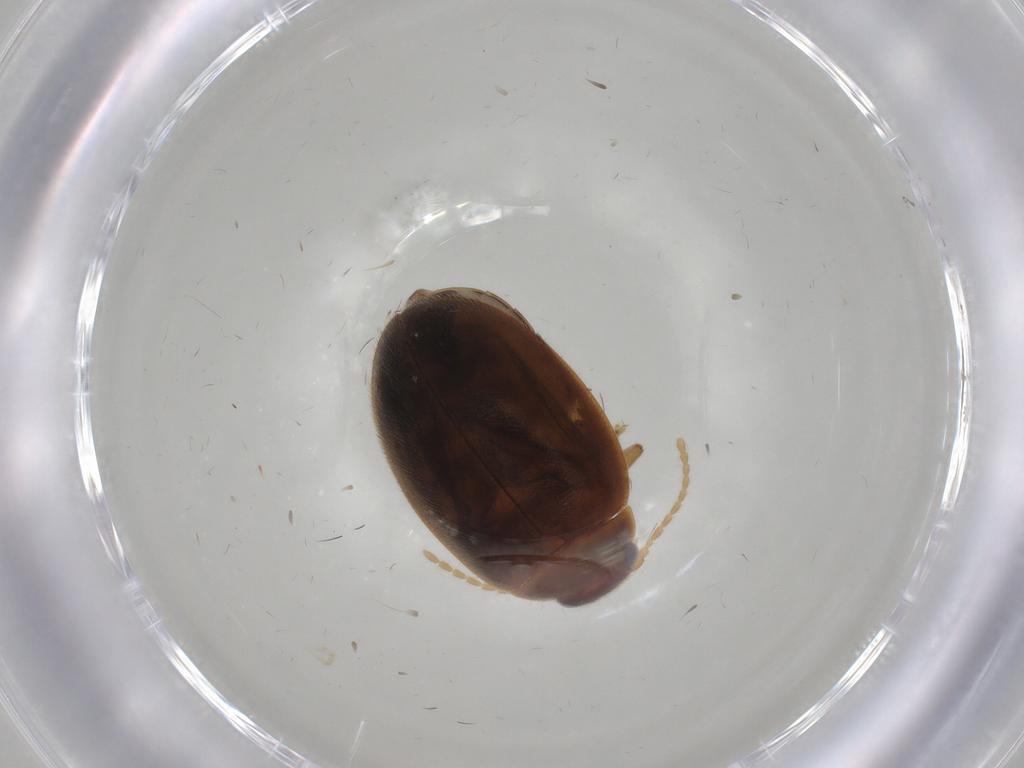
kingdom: Animalia
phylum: Arthropoda
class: Insecta
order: Coleoptera
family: Scirtidae
